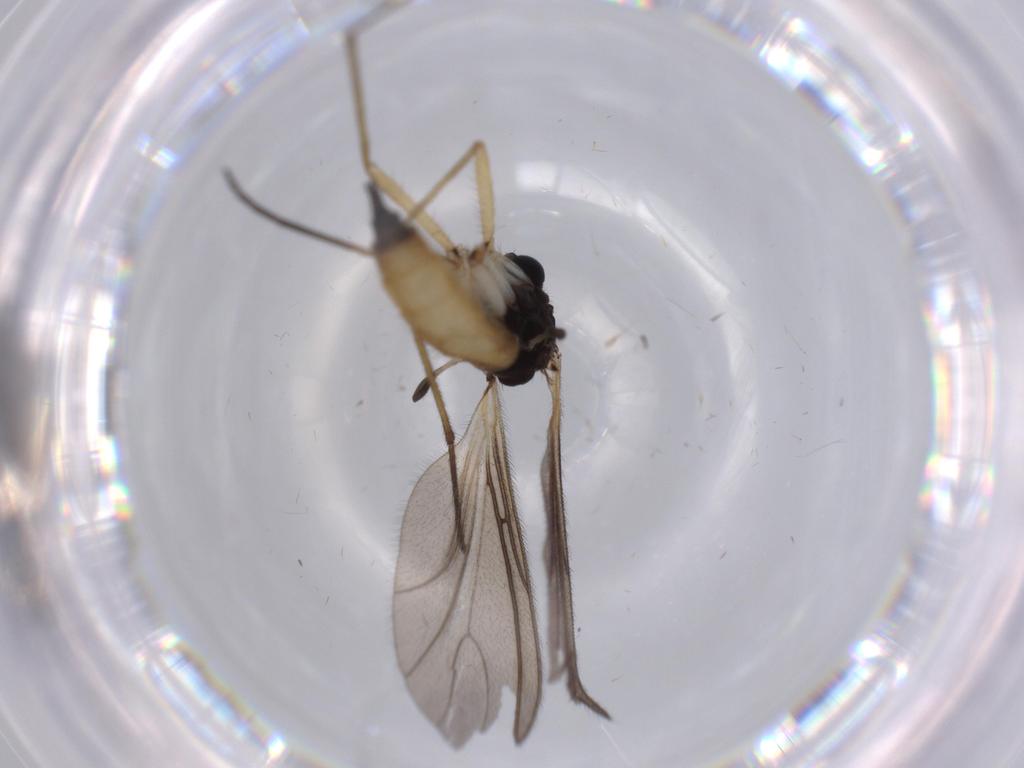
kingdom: Animalia
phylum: Arthropoda
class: Insecta
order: Diptera
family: Sciaridae
